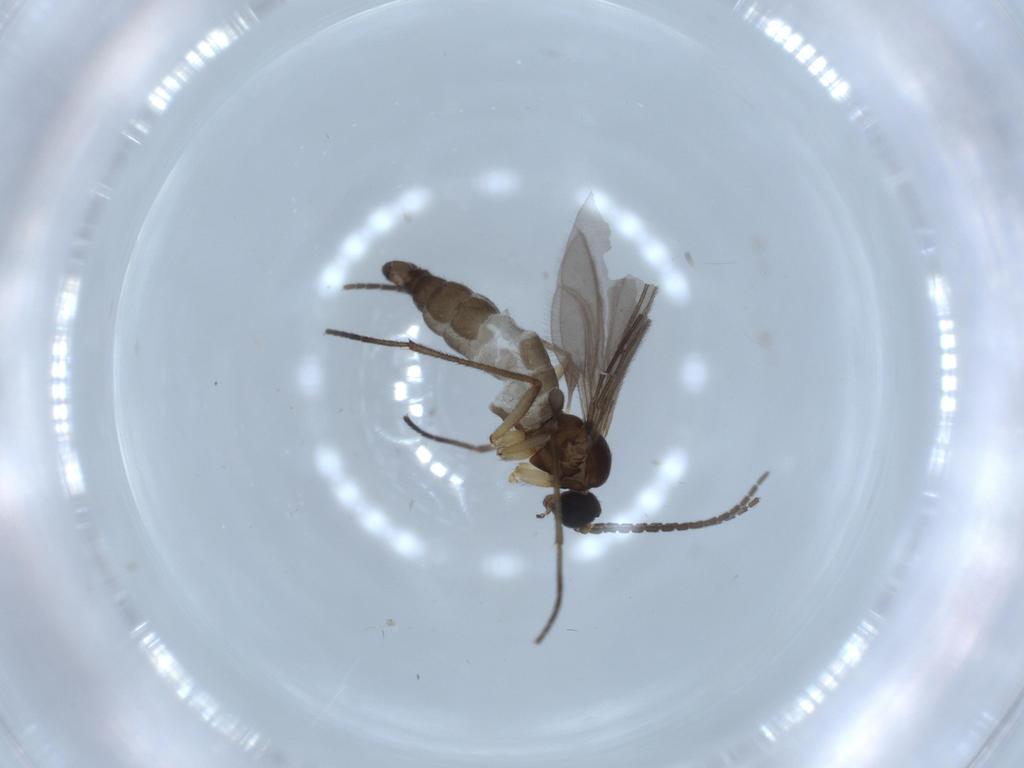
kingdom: Animalia
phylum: Arthropoda
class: Insecta
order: Diptera
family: Sciaridae
